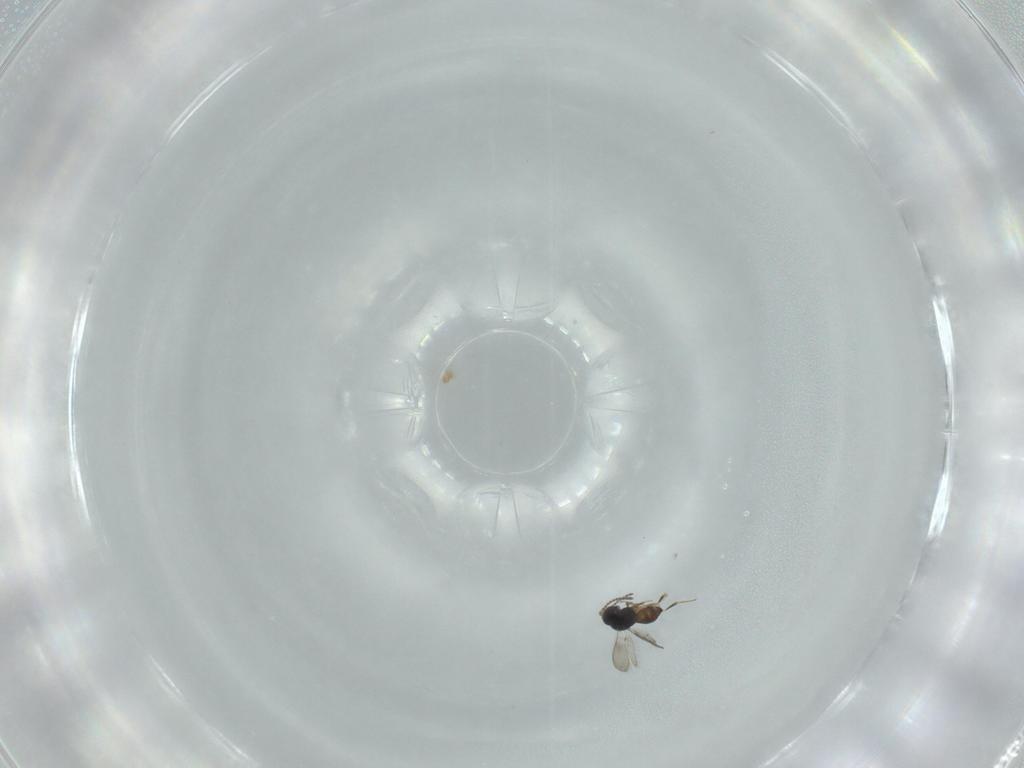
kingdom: Animalia
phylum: Arthropoda
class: Insecta
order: Hymenoptera
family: Scelionidae
